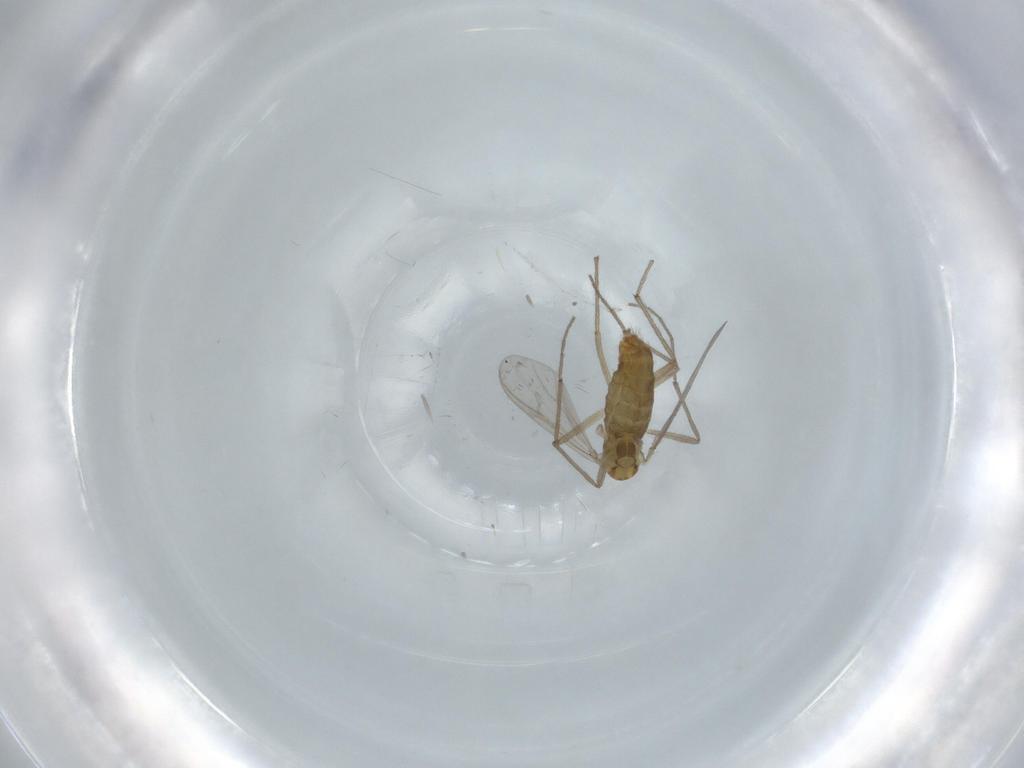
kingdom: Animalia
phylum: Arthropoda
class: Insecta
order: Diptera
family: Chironomidae
